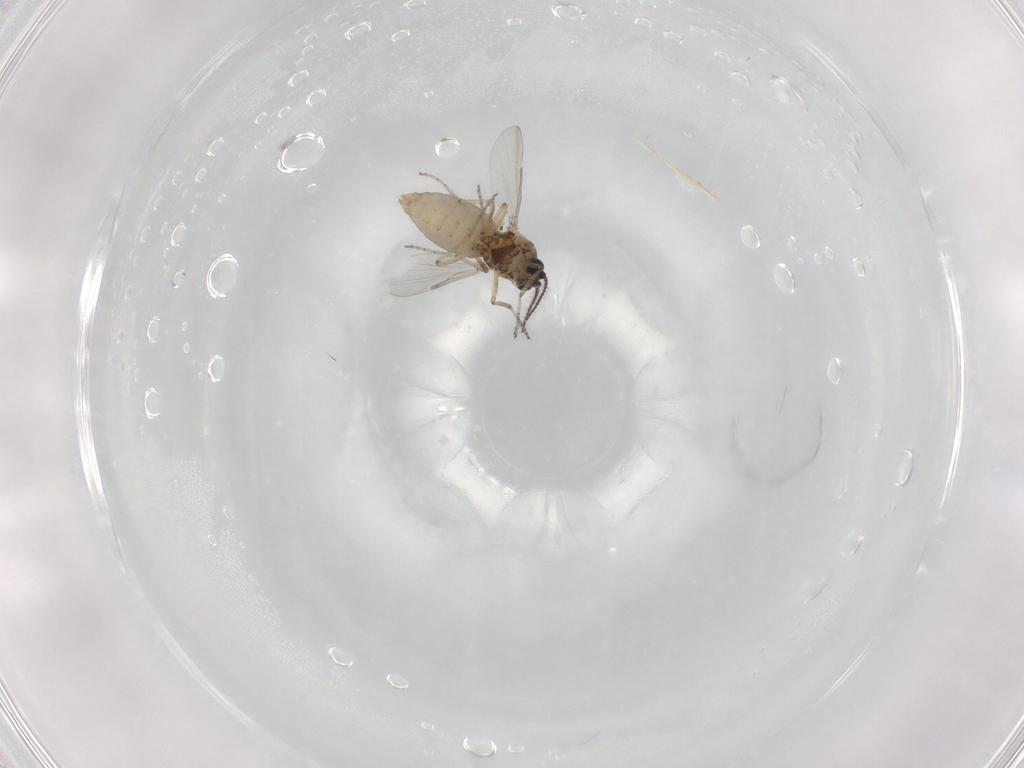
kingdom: Animalia
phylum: Arthropoda
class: Insecta
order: Diptera
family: Ceratopogonidae
